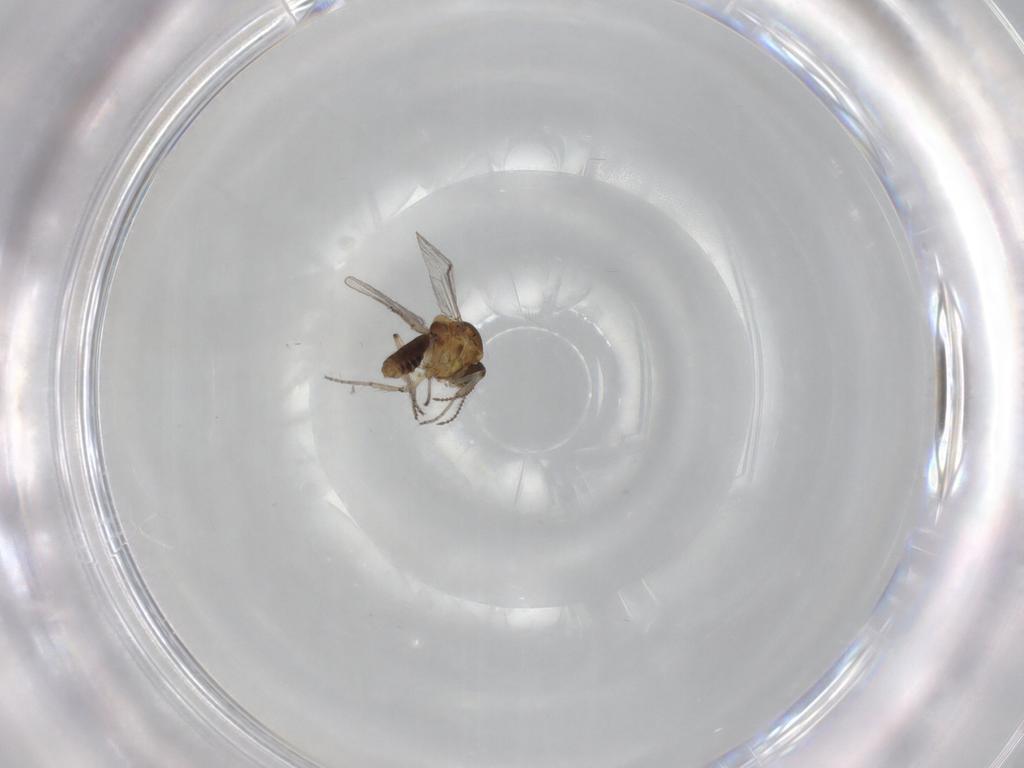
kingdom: Animalia
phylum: Arthropoda
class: Insecta
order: Diptera
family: Ceratopogonidae
